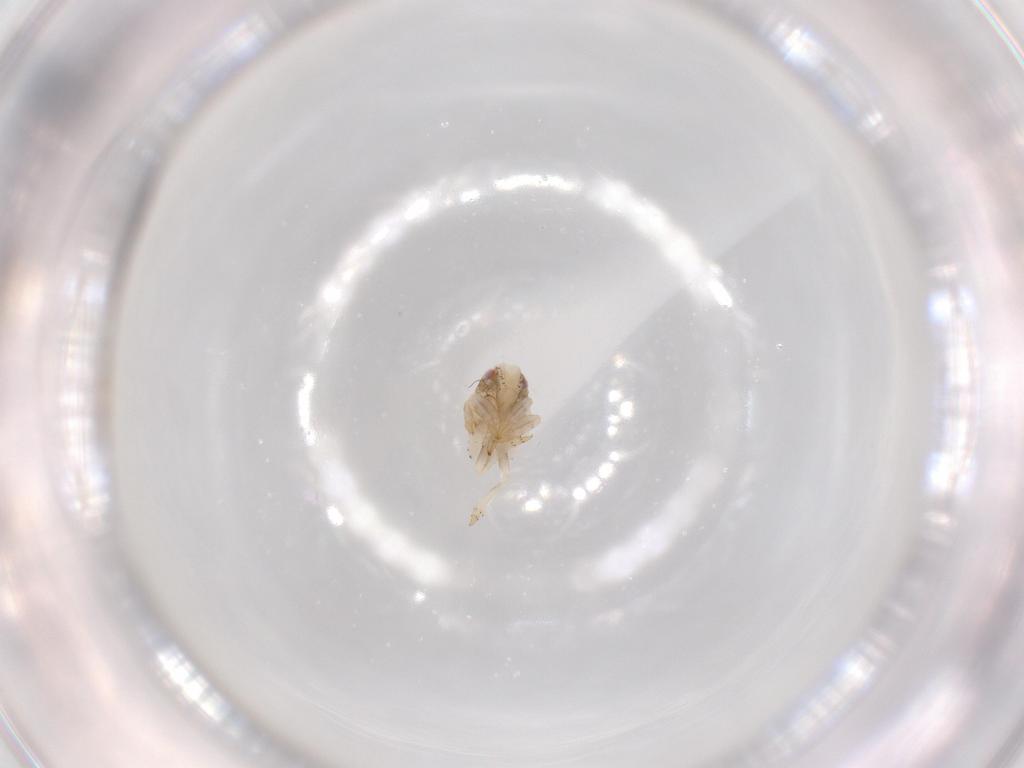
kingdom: Animalia
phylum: Arthropoda
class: Insecta
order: Hemiptera
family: Acanaloniidae
